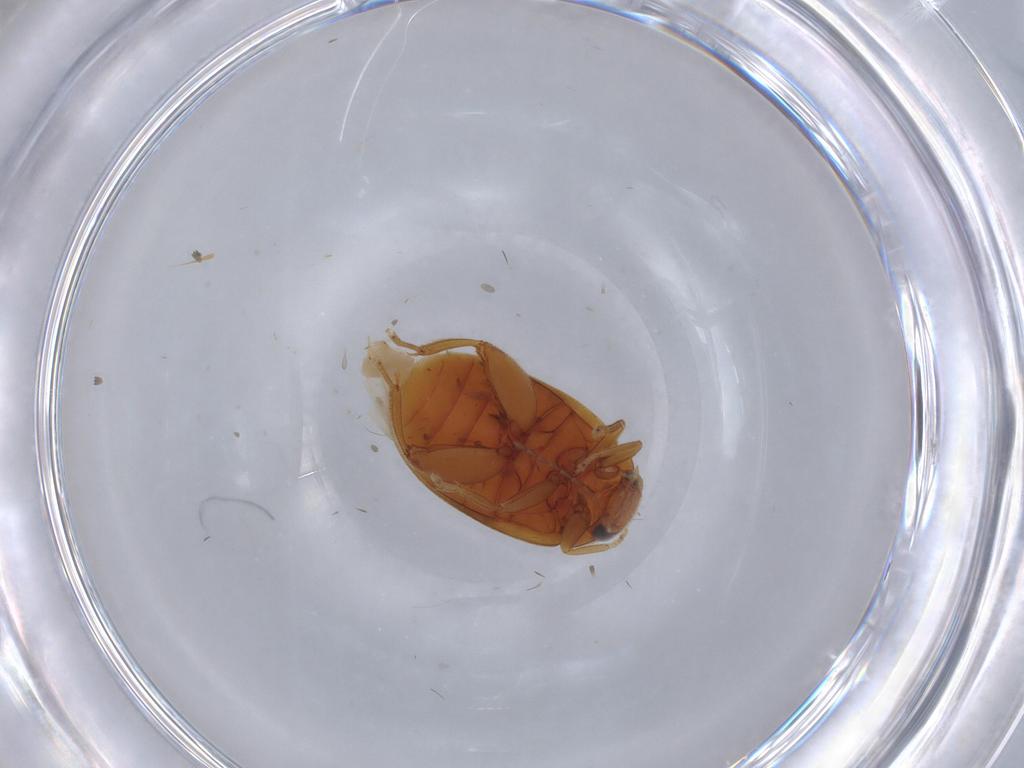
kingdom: Animalia
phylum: Arthropoda
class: Insecta
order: Coleoptera
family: Scirtidae
